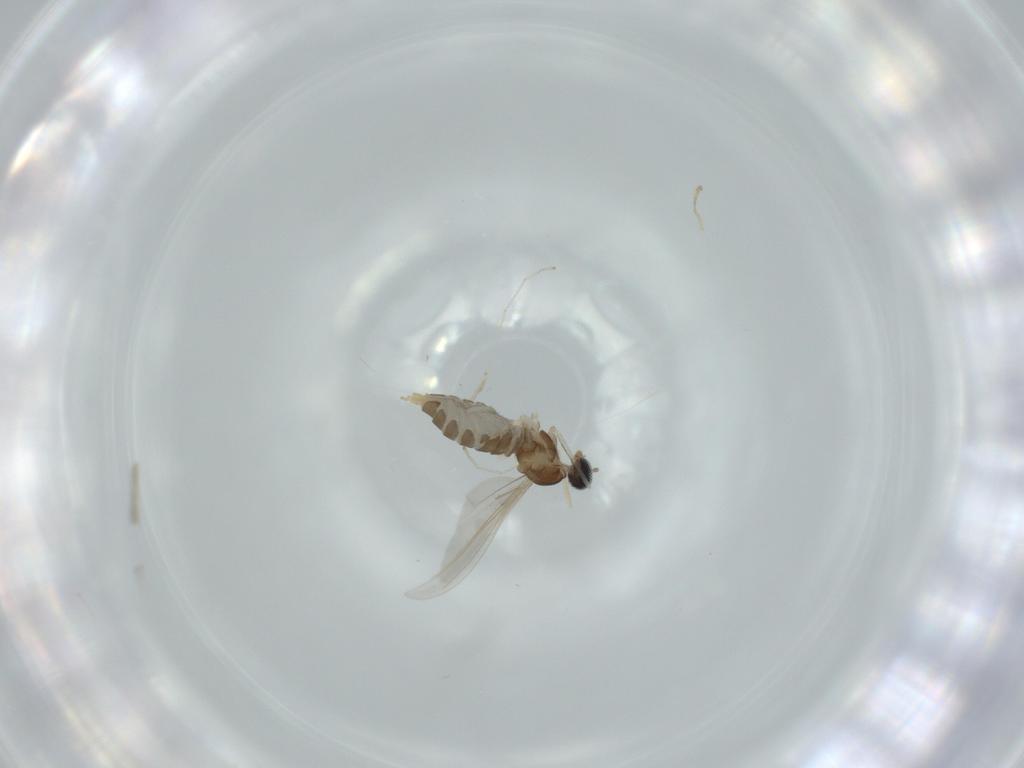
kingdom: Animalia
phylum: Arthropoda
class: Insecta
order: Diptera
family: Cecidomyiidae
